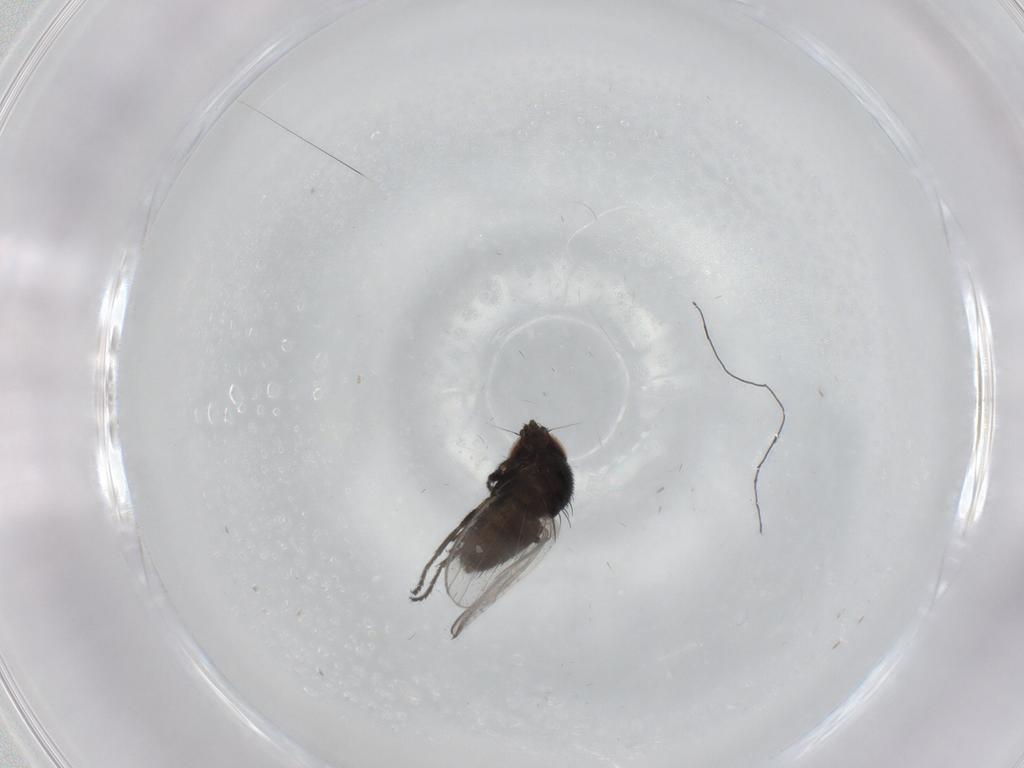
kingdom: Animalia
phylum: Arthropoda
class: Insecta
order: Diptera
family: Milichiidae
